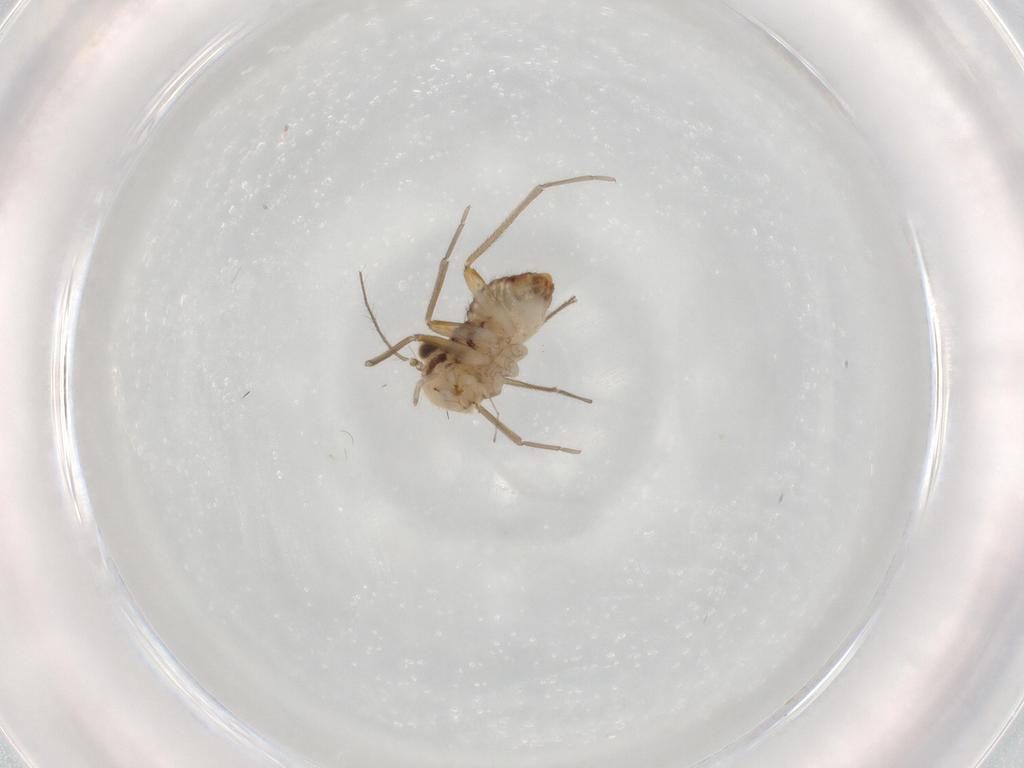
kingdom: Animalia
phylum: Arthropoda
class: Insecta
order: Psocodea
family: Mesopsocidae
